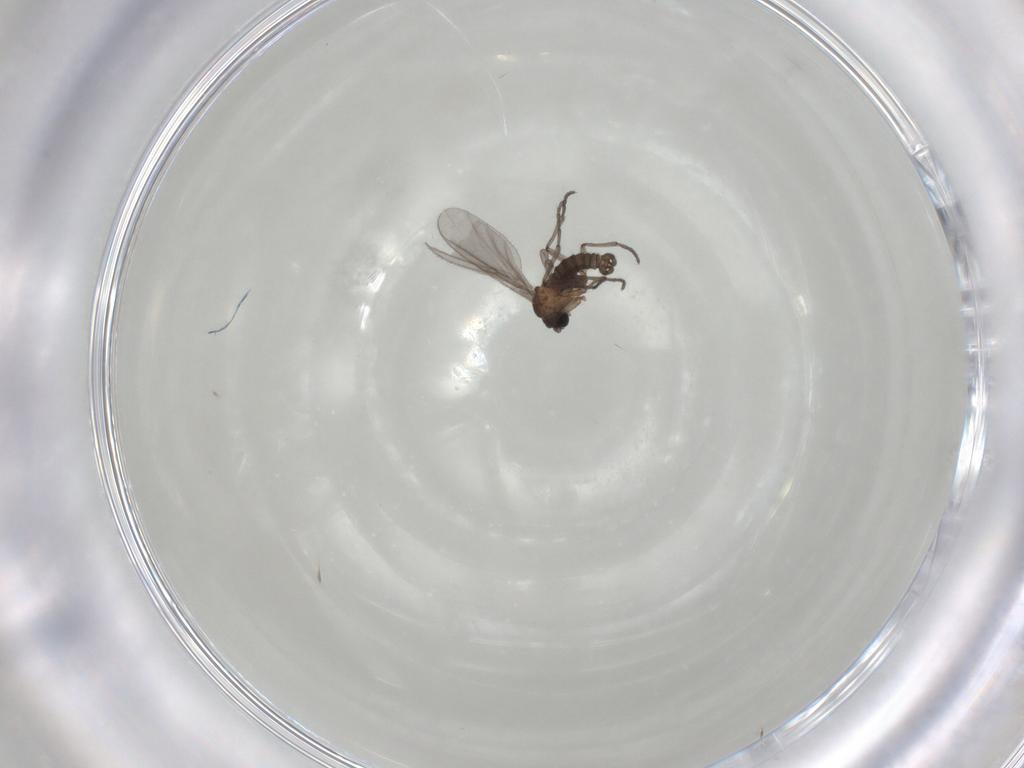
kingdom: Animalia
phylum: Arthropoda
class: Insecta
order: Diptera
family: Sciaridae
